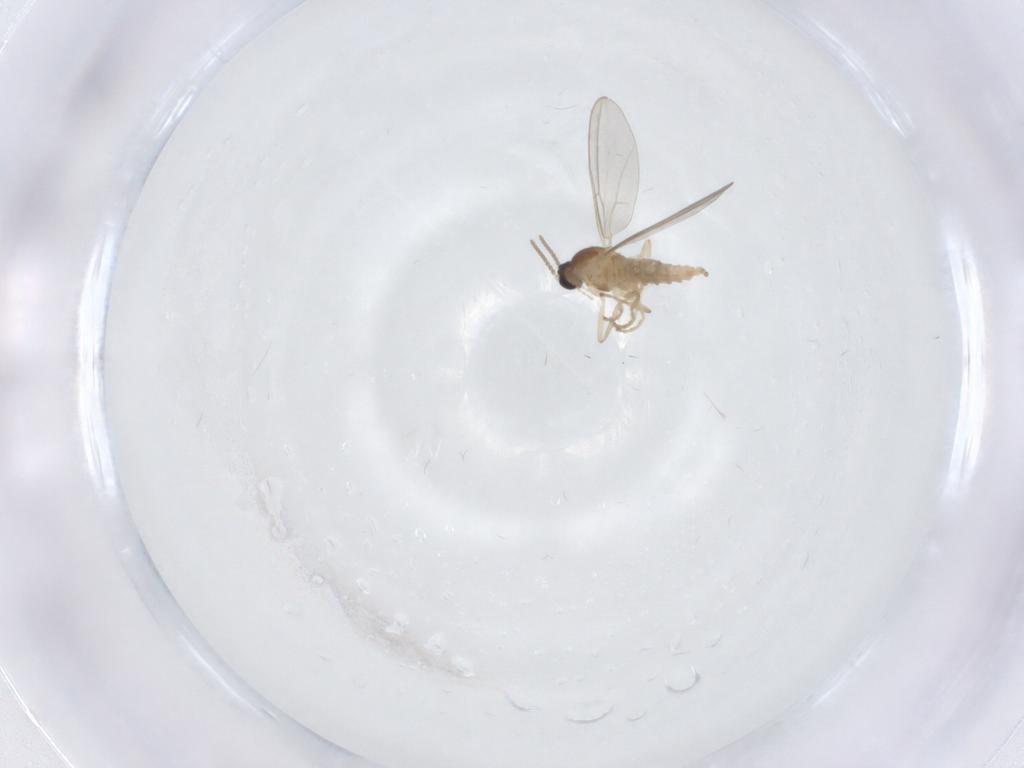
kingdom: Animalia
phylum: Arthropoda
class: Insecta
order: Diptera
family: Cecidomyiidae
